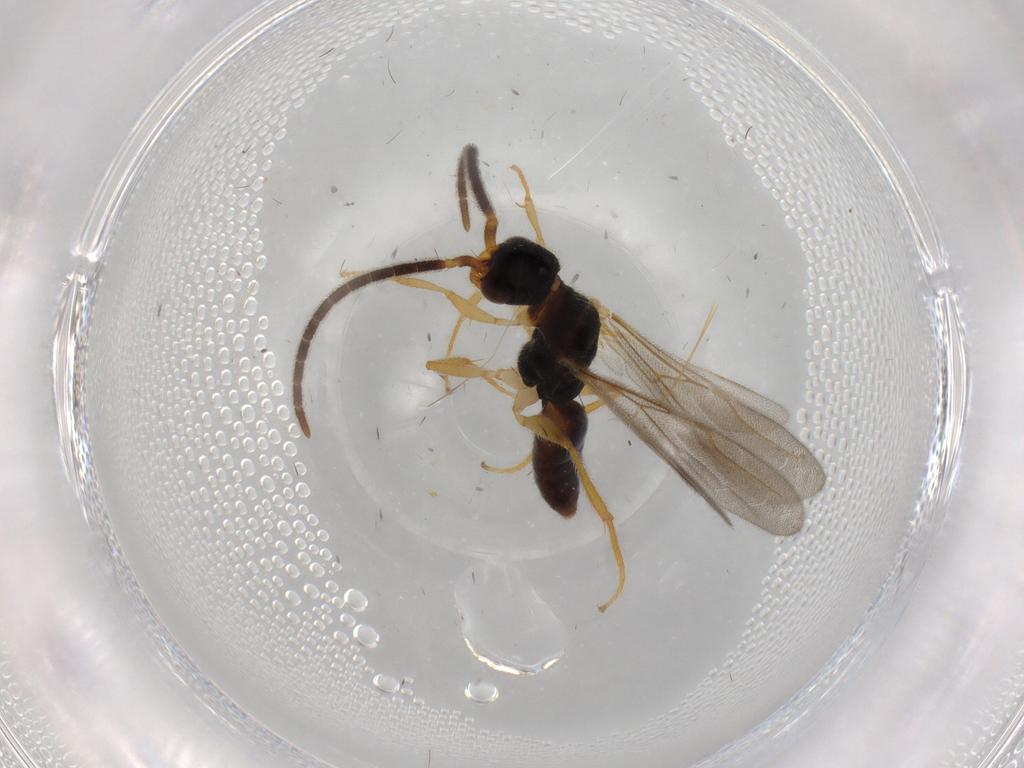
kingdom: Animalia
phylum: Arthropoda
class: Insecta
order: Hymenoptera
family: Bethylidae
